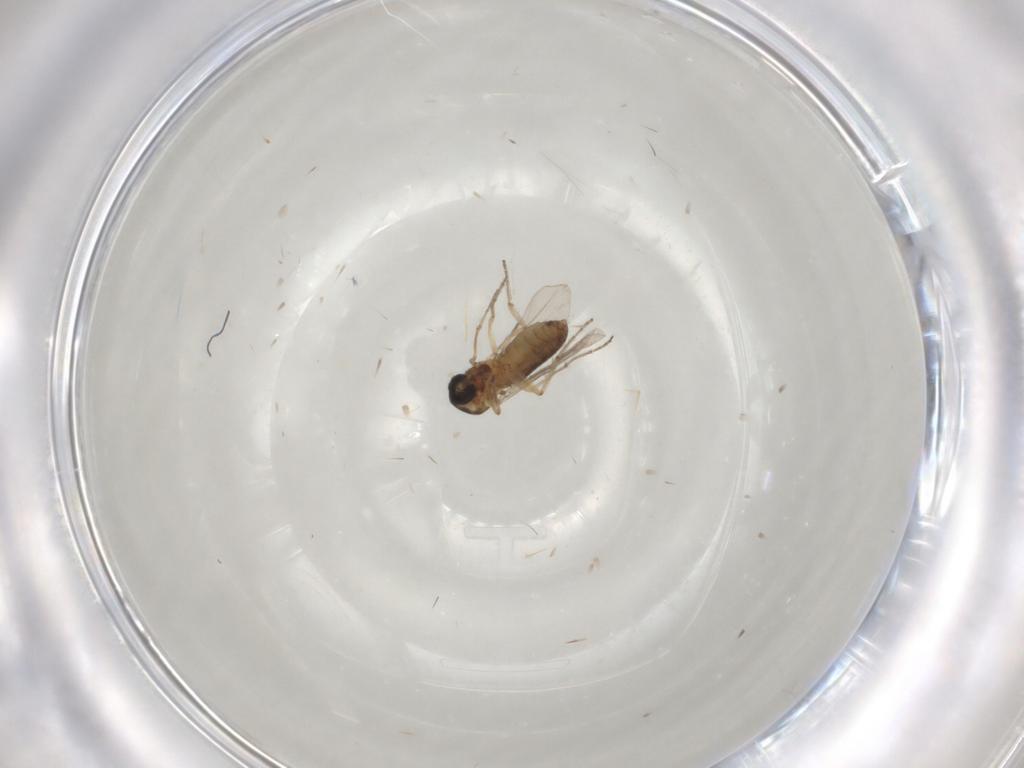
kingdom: Animalia
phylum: Arthropoda
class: Insecta
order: Diptera
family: Ceratopogonidae
